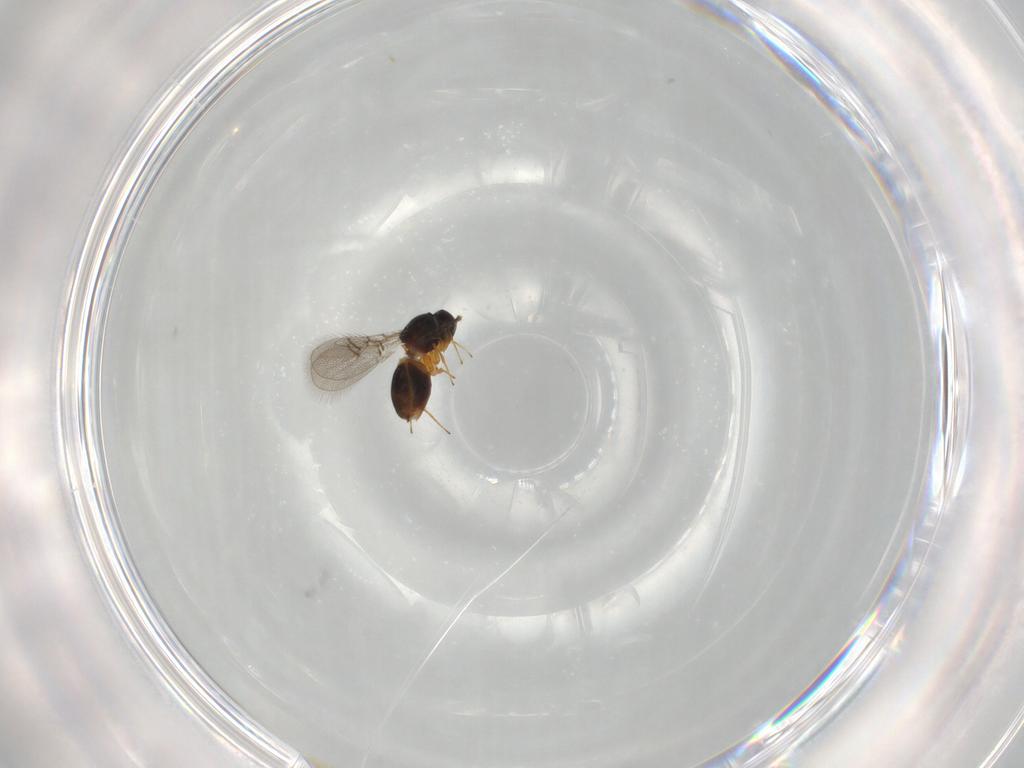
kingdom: Animalia
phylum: Arthropoda
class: Insecta
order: Hymenoptera
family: Figitidae
